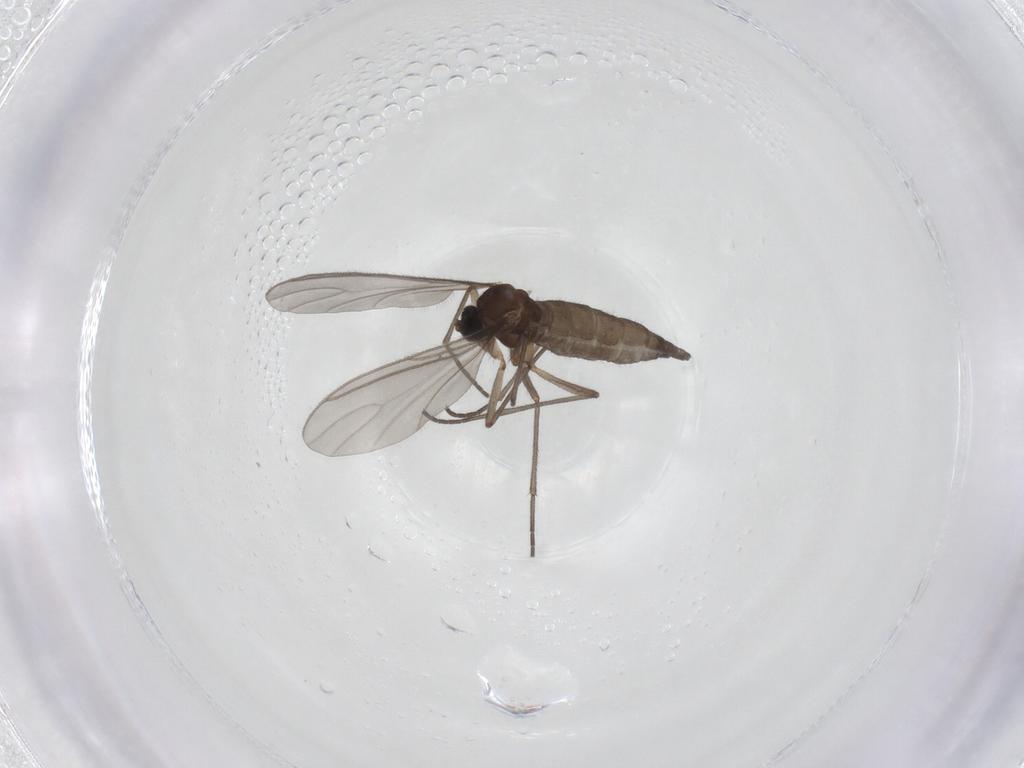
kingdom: Animalia
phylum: Arthropoda
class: Insecta
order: Diptera
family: Sciaridae
